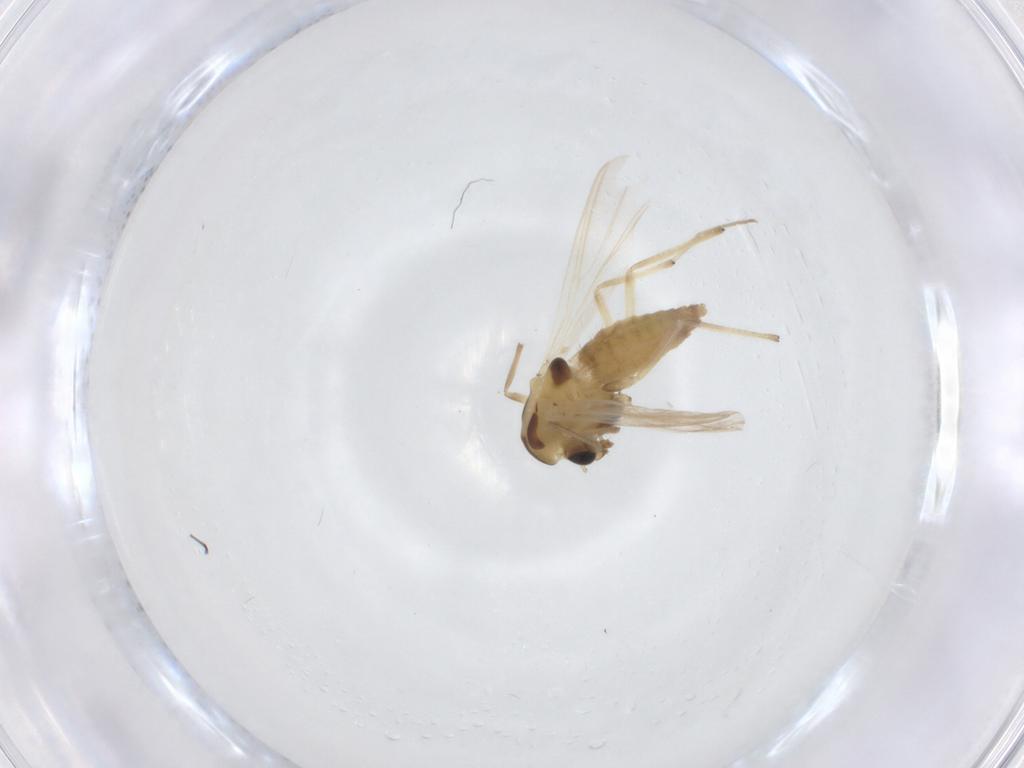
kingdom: Animalia
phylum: Arthropoda
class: Insecta
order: Diptera
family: Chironomidae
